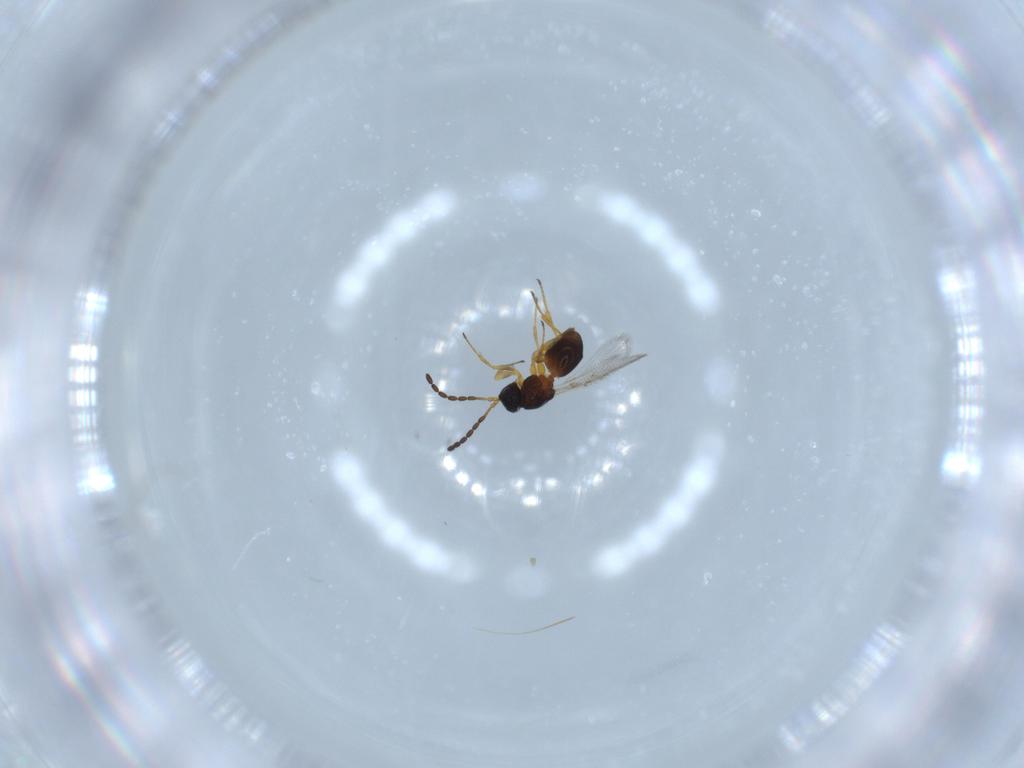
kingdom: Animalia
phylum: Arthropoda
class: Insecta
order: Hymenoptera
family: Figitidae
